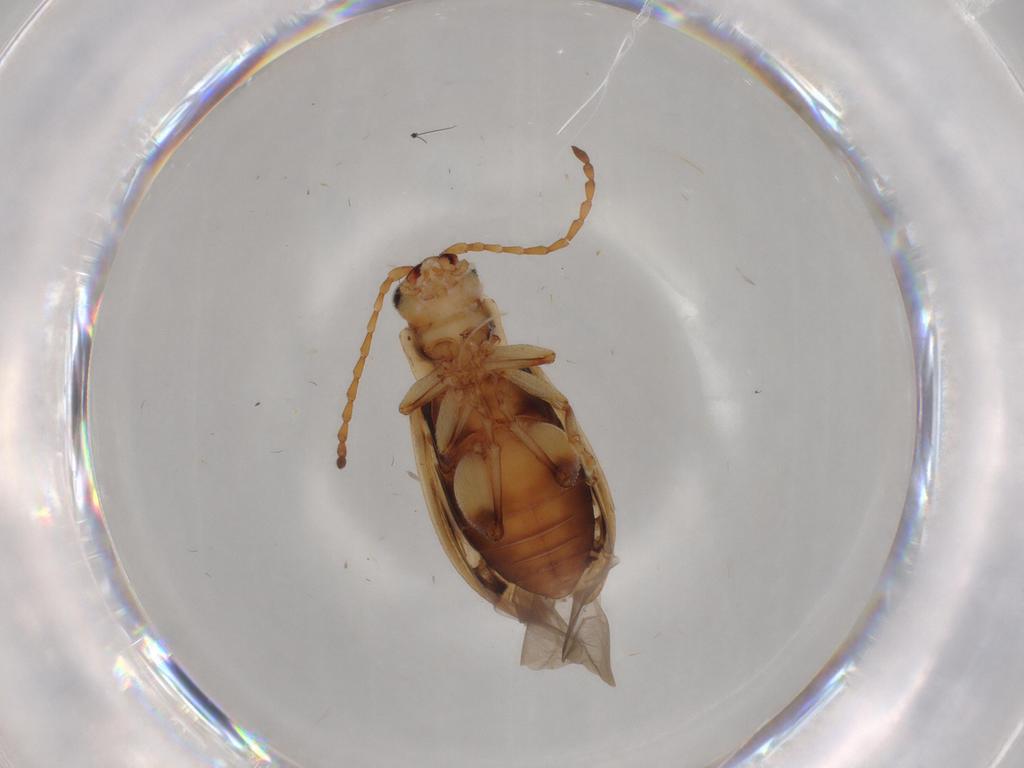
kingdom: Animalia
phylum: Arthropoda
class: Insecta
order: Coleoptera
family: Chrysomelidae
